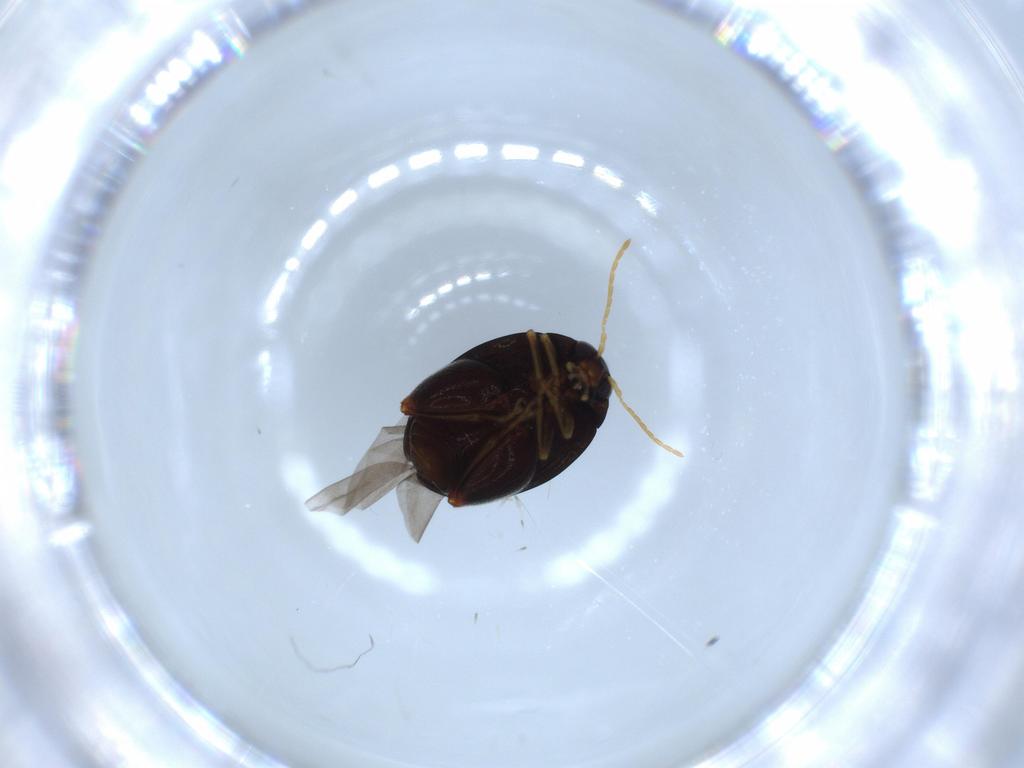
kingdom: Animalia
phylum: Arthropoda
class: Insecta
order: Coleoptera
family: Chrysomelidae
